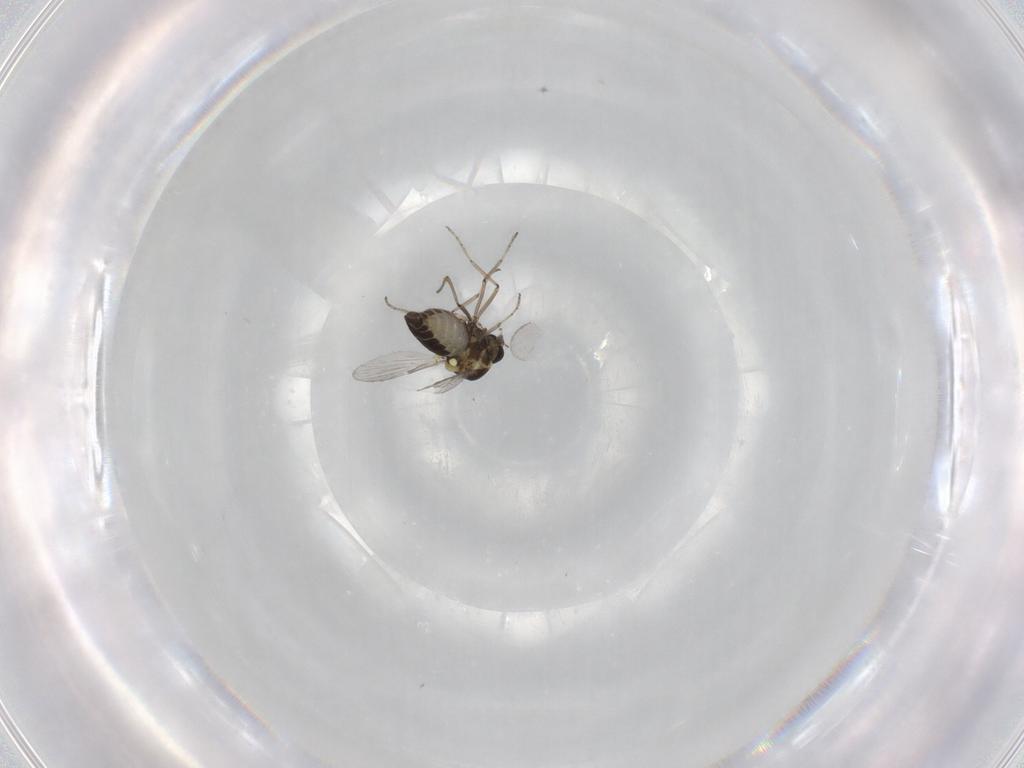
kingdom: Animalia
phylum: Arthropoda
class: Insecta
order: Diptera
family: Ceratopogonidae
